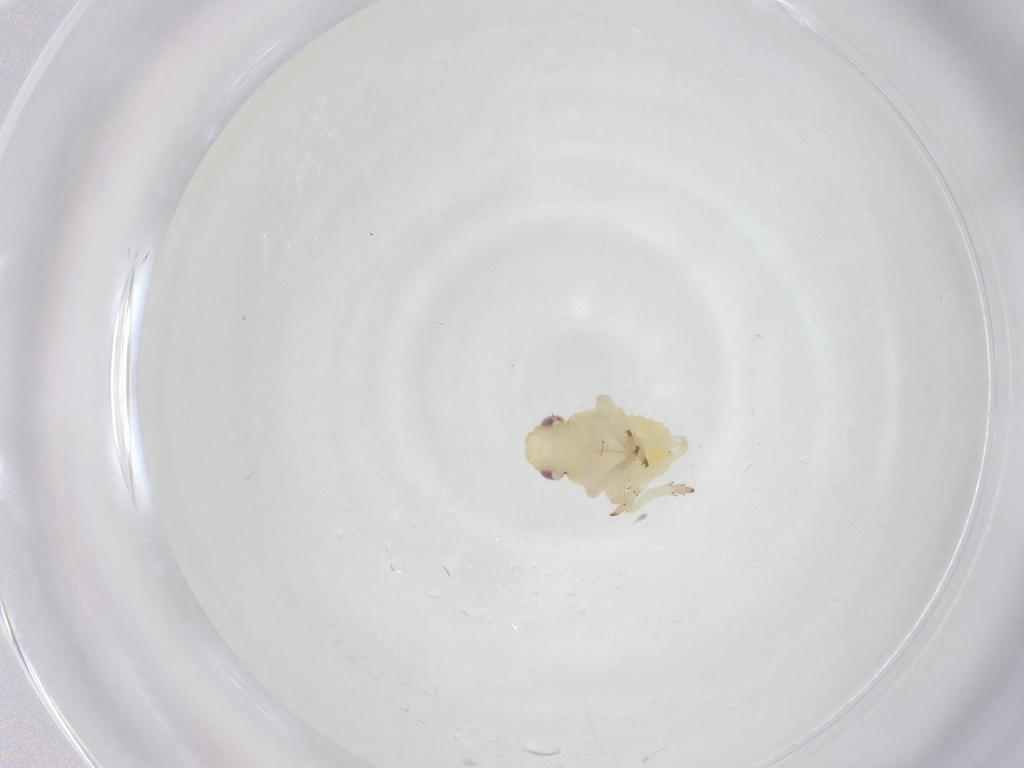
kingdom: Animalia
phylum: Arthropoda
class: Insecta
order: Hemiptera
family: Caliscelidae
